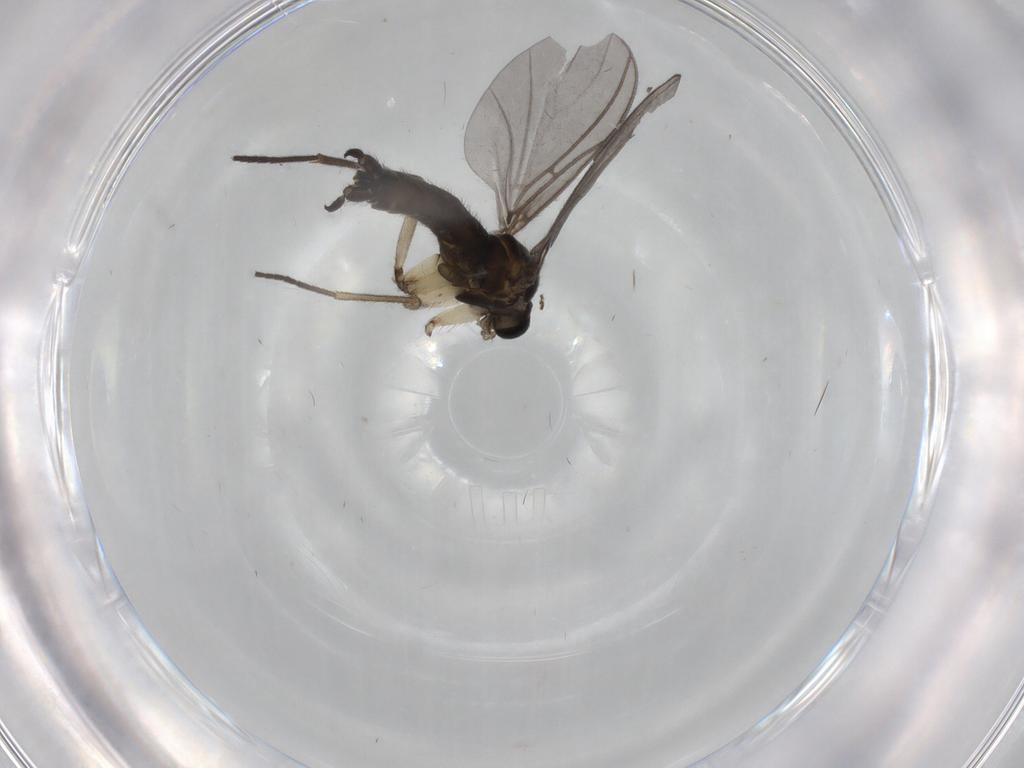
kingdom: Animalia
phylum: Arthropoda
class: Insecta
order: Diptera
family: Sciaridae
